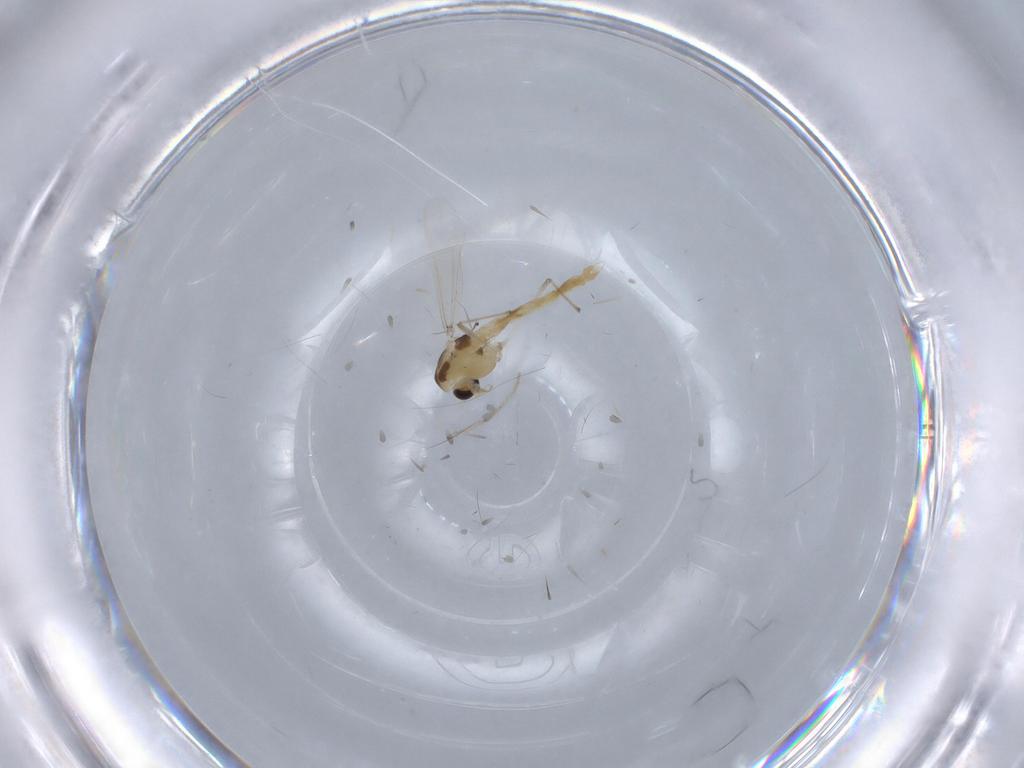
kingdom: Animalia
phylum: Arthropoda
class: Insecta
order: Diptera
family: Chironomidae
